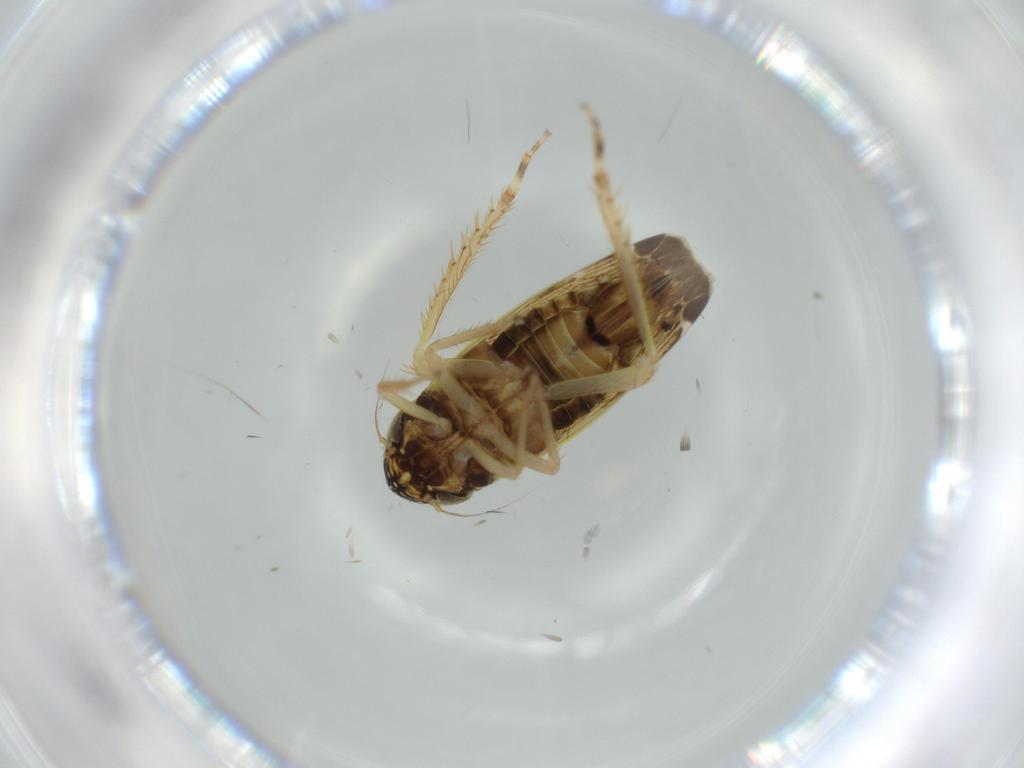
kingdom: Animalia
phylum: Arthropoda
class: Insecta
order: Hemiptera
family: Cicadellidae
